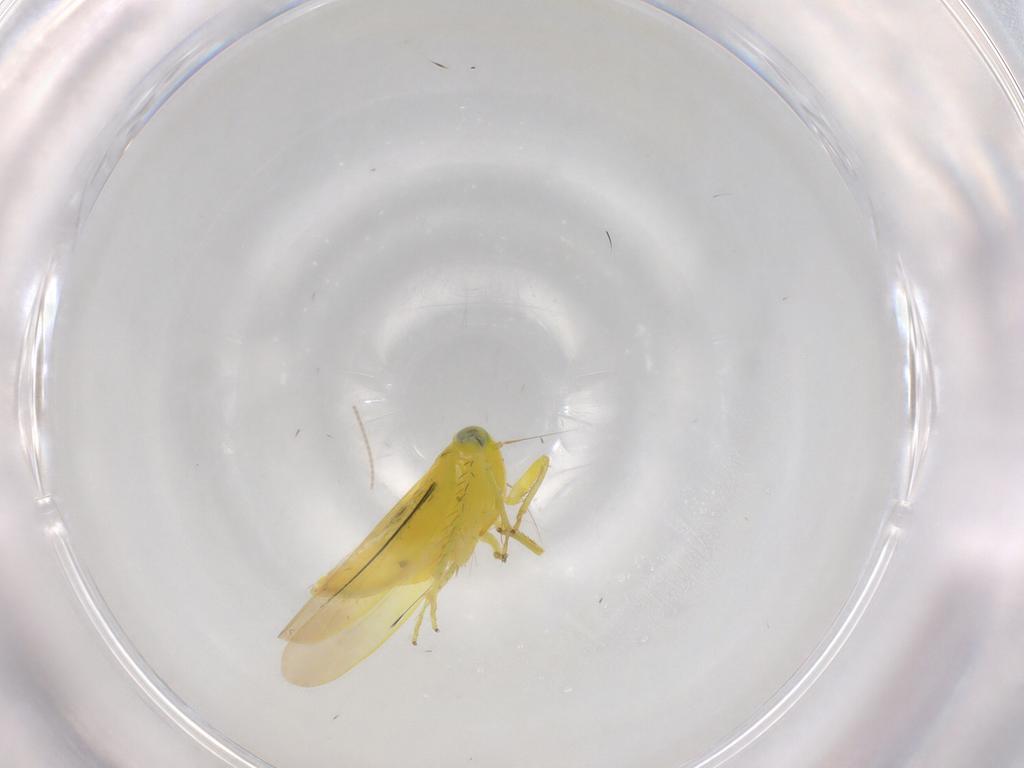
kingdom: Animalia
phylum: Arthropoda
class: Insecta
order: Hemiptera
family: Cicadellidae
